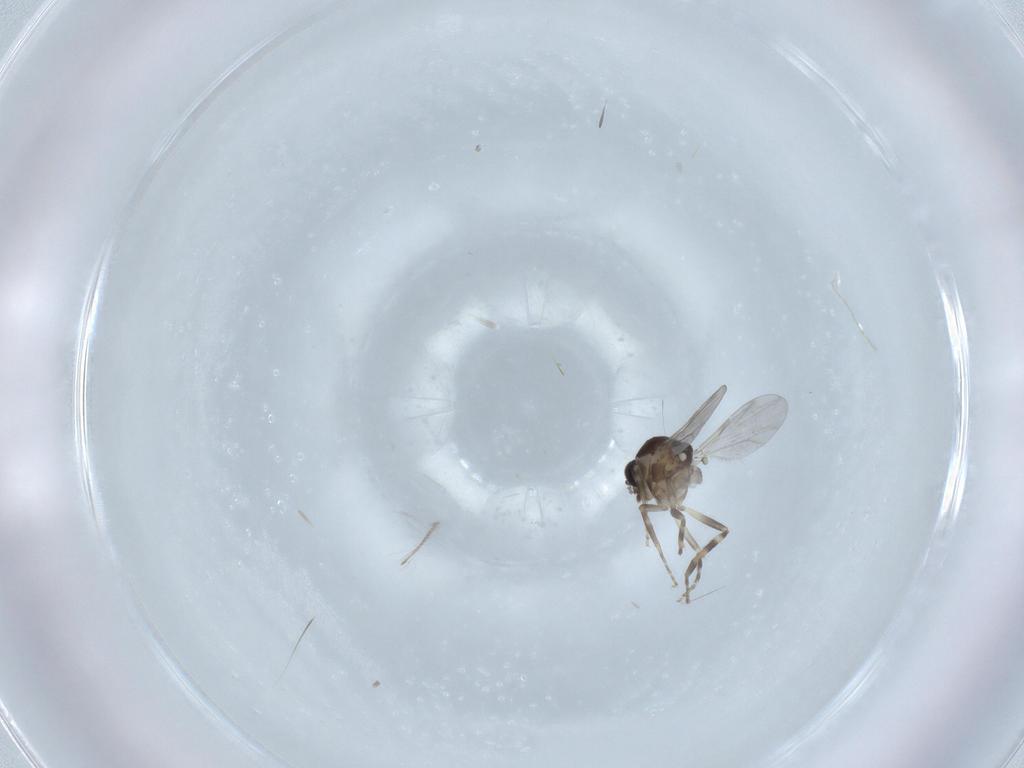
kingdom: Animalia
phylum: Arthropoda
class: Insecta
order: Diptera
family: Ceratopogonidae
